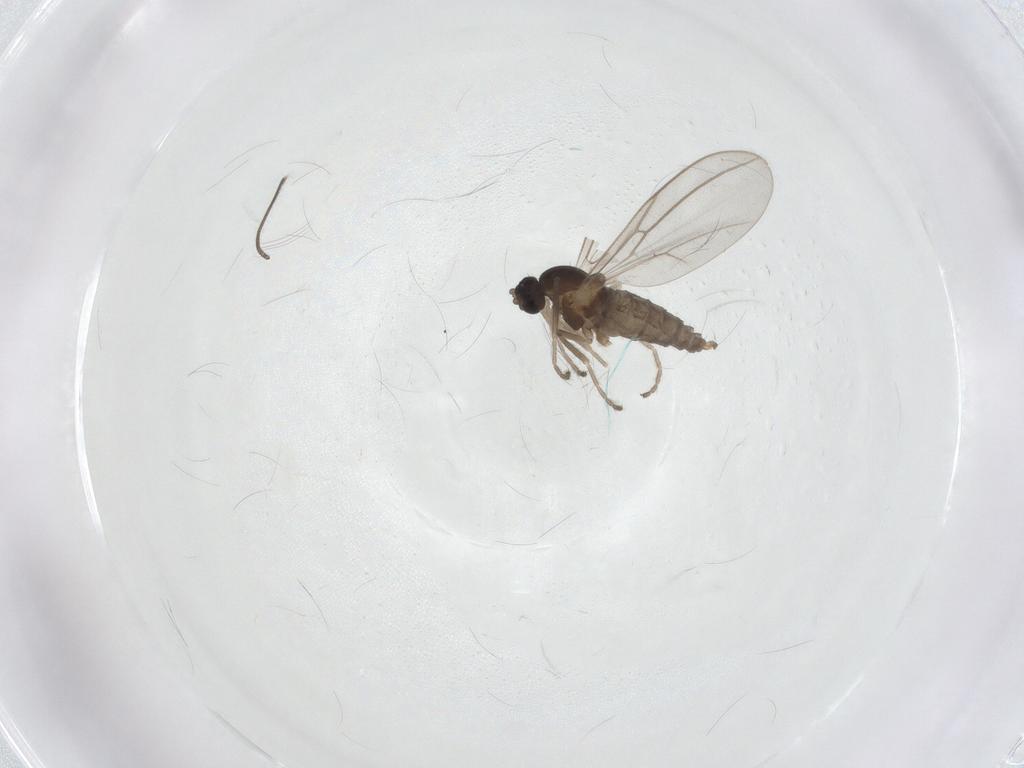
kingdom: Animalia
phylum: Arthropoda
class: Insecta
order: Diptera
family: Cecidomyiidae
